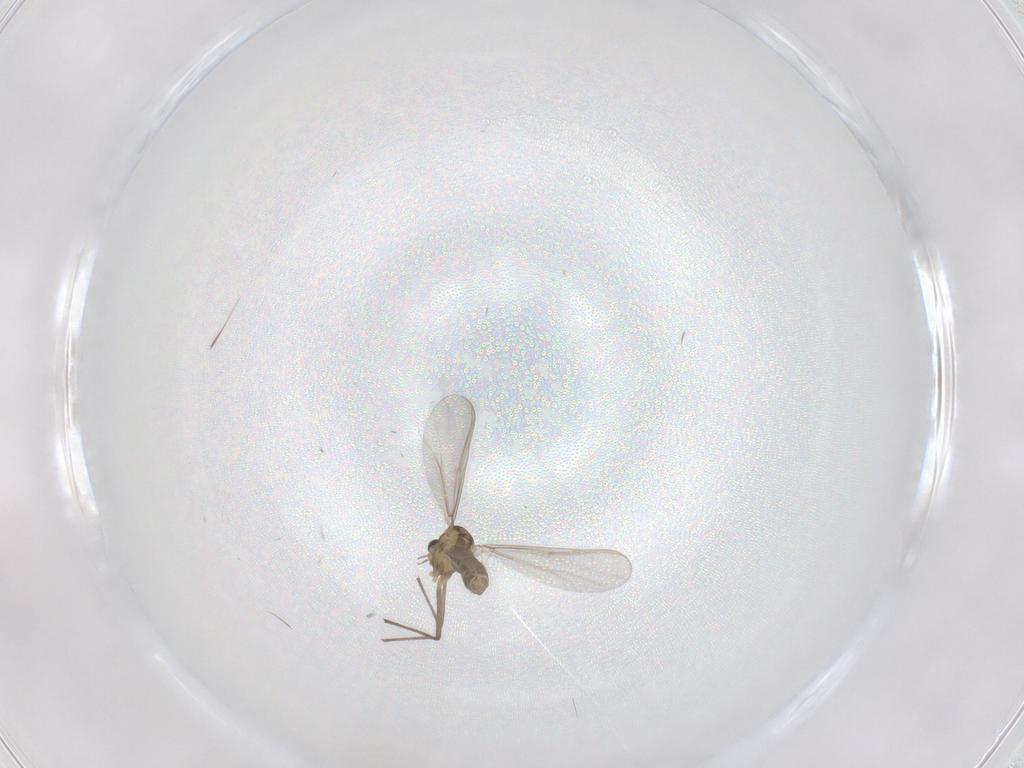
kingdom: Animalia
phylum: Arthropoda
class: Insecta
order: Diptera
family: Chironomidae
